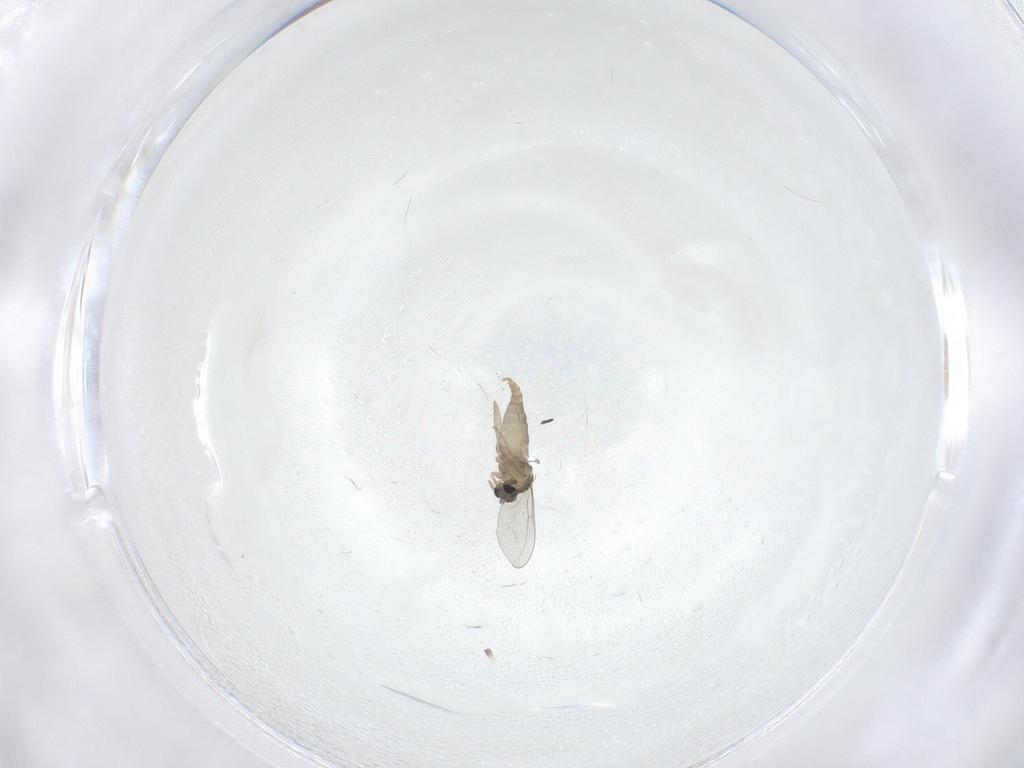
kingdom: Animalia
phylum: Arthropoda
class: Insecta
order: Diptera
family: Cecidomyiidae
